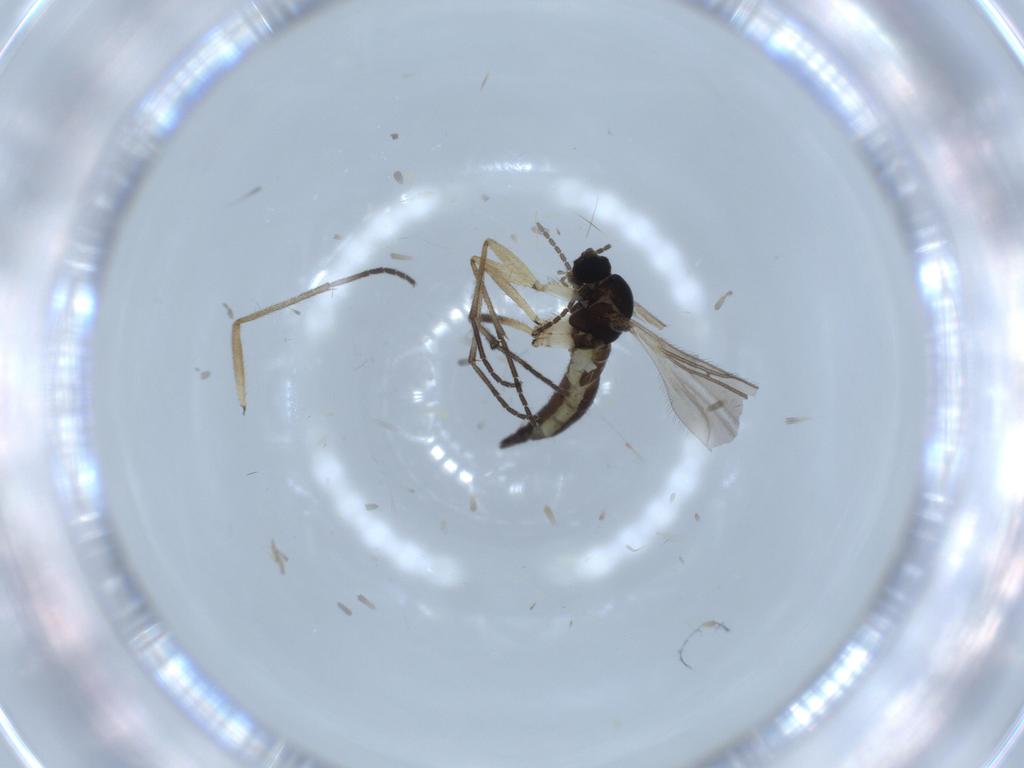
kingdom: Animalia
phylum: Arthropoda
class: Insecta
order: Diptera
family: Sciaridae
